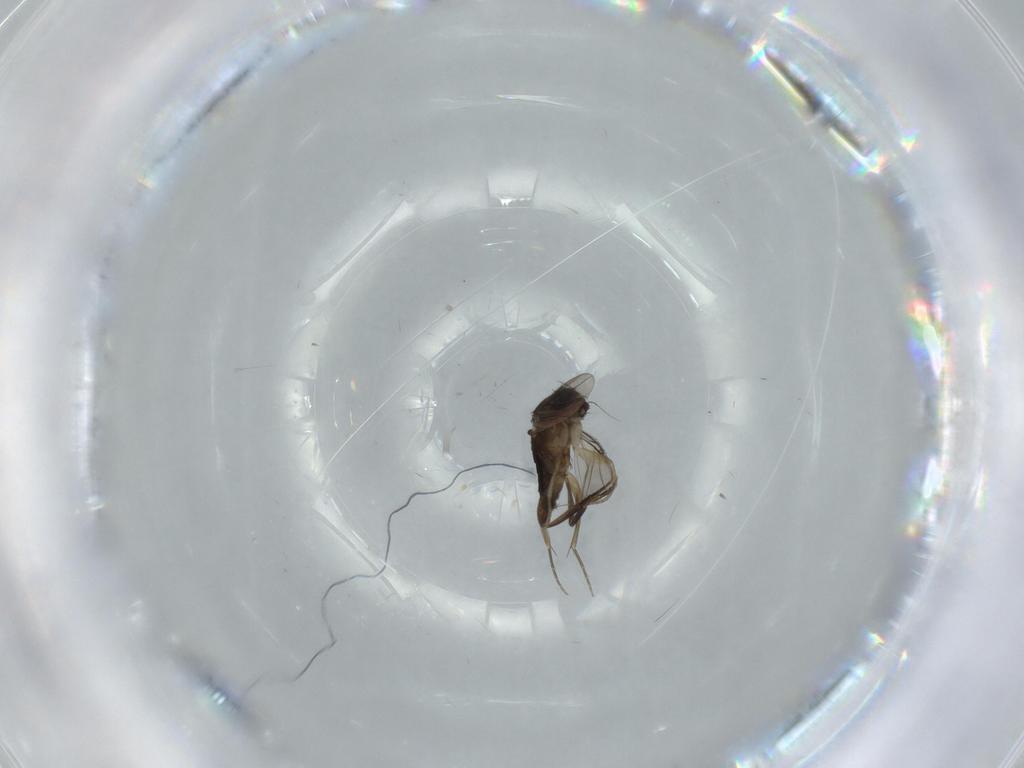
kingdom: Animalia
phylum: Arthropoda
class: Insecta
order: Diptera
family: Phoridae
